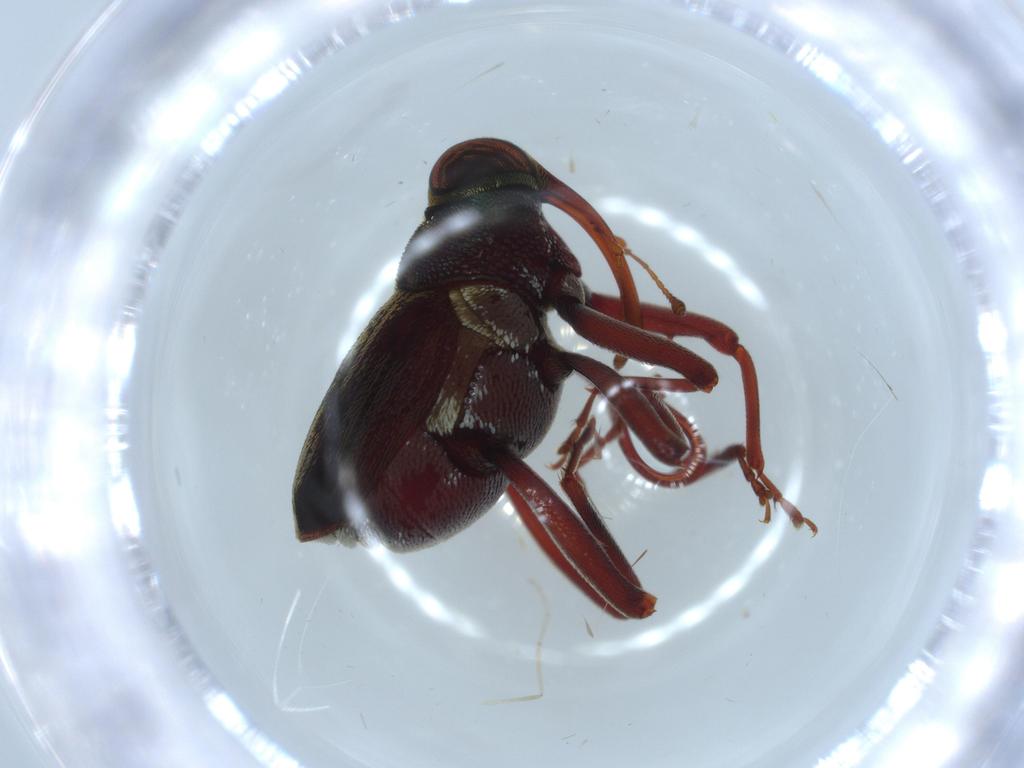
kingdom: Animalia
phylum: Arthropoda
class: Insecta
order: Coleoptera
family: Curculionidae
